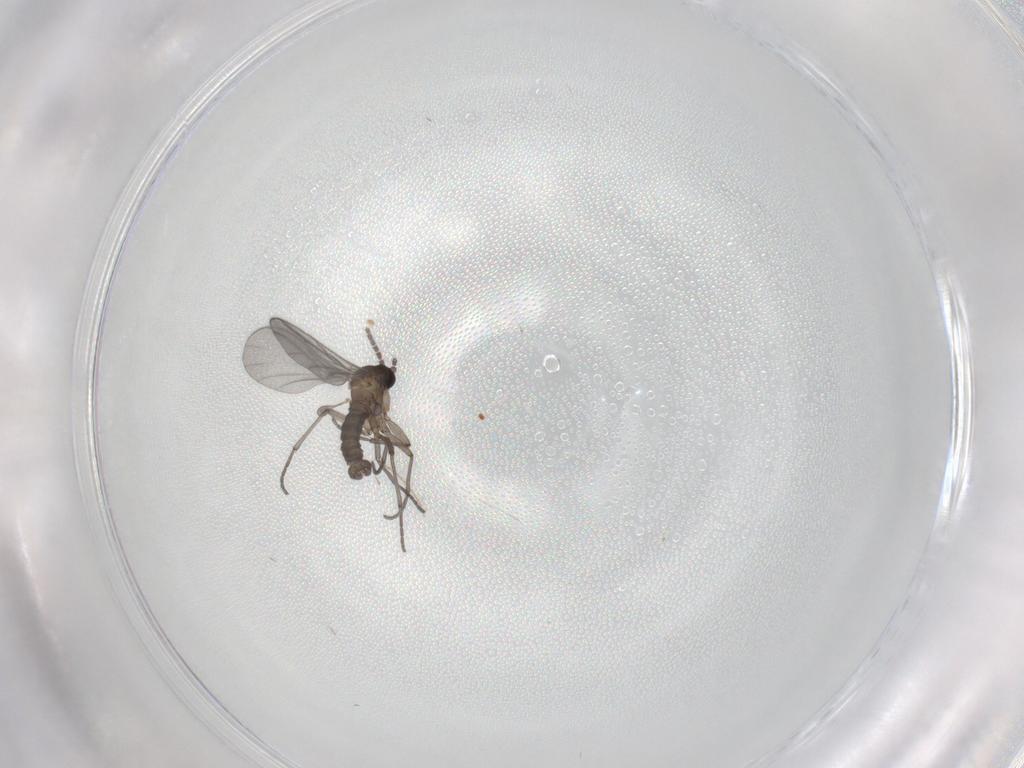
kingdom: Animalia
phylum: Arthropoda
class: Insecta
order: Diptera
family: Sciaridae
